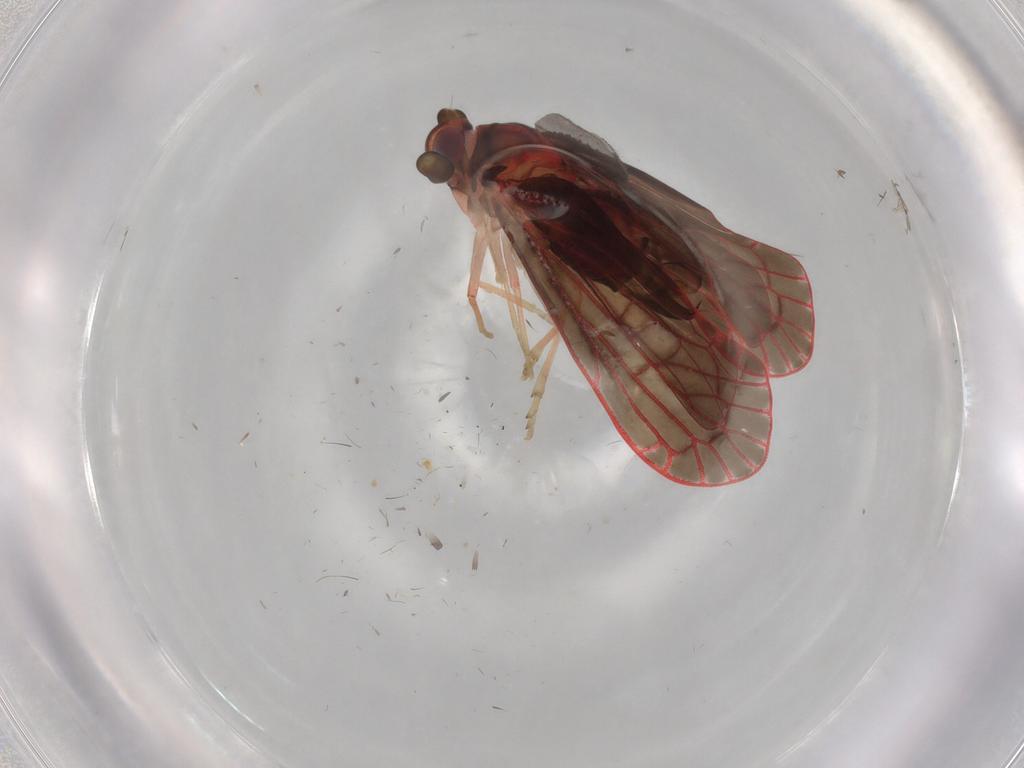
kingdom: Animalia
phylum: Arthropoda
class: Insecta
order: Hemiptera
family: Derbidae
